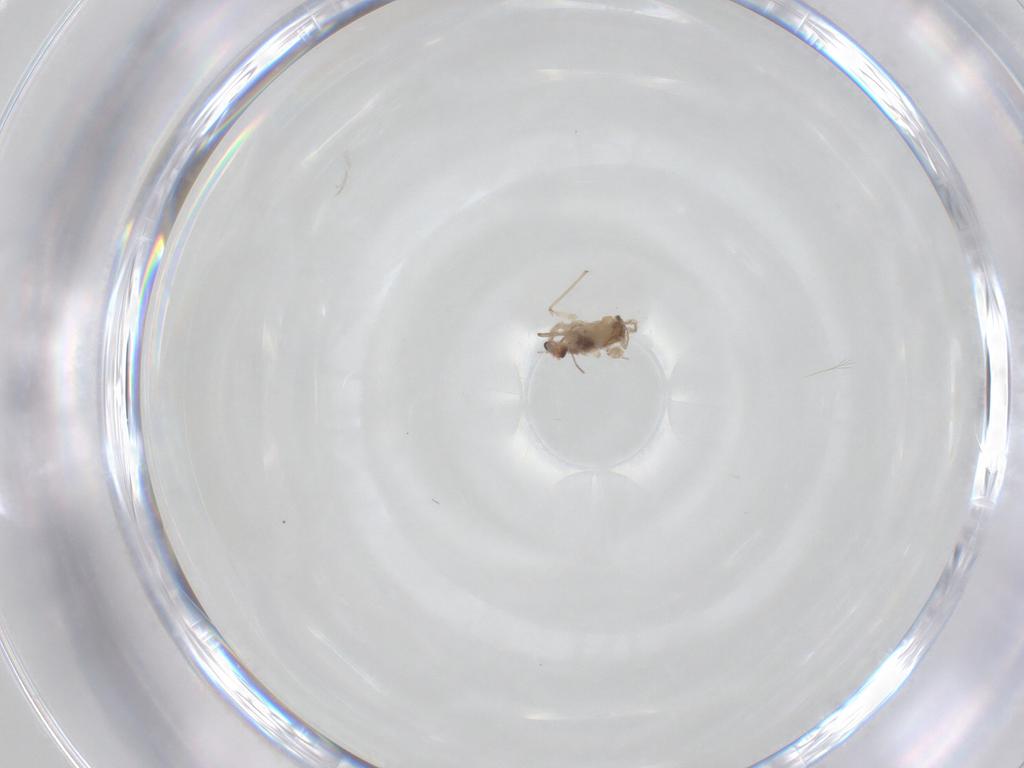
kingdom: Animalia
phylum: Arthropoda
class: Insecta
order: Diptera
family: Chironomidae
